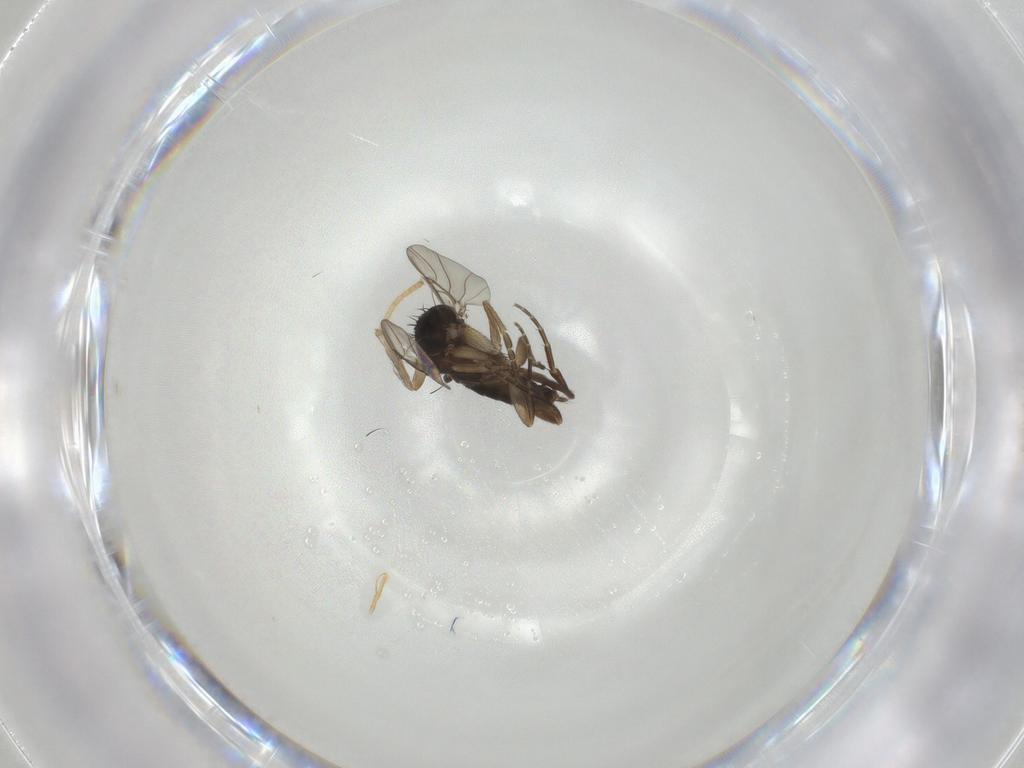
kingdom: Animalia
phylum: Arthropoda
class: Insecta
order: Diptera
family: Phoridae
